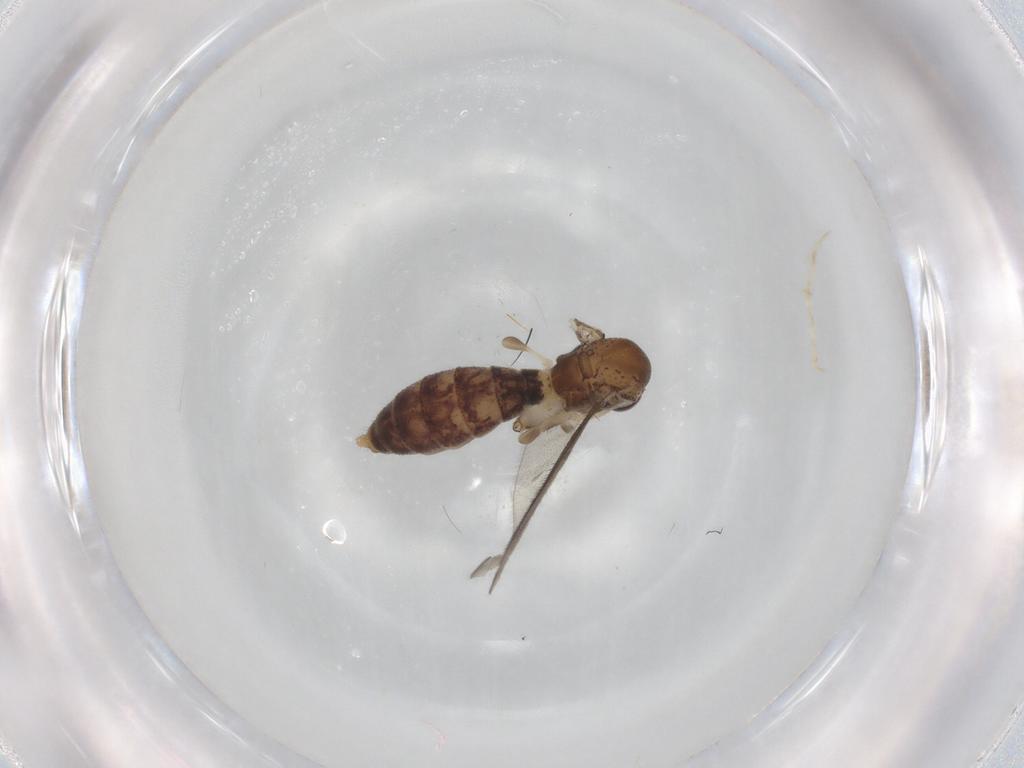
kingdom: Animalia
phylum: Arthropoda
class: Insecta
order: Diptera
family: Mycetophilidae
